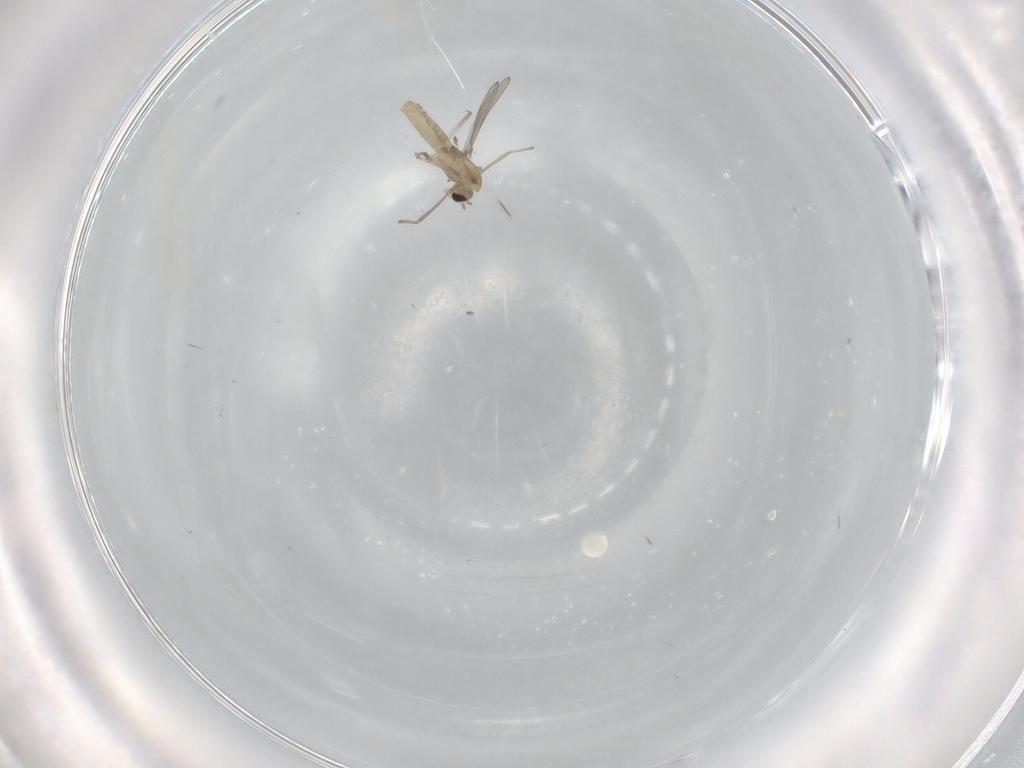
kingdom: Animalia
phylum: Arthropoda
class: Insecta
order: Diptera
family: Chironomidae
